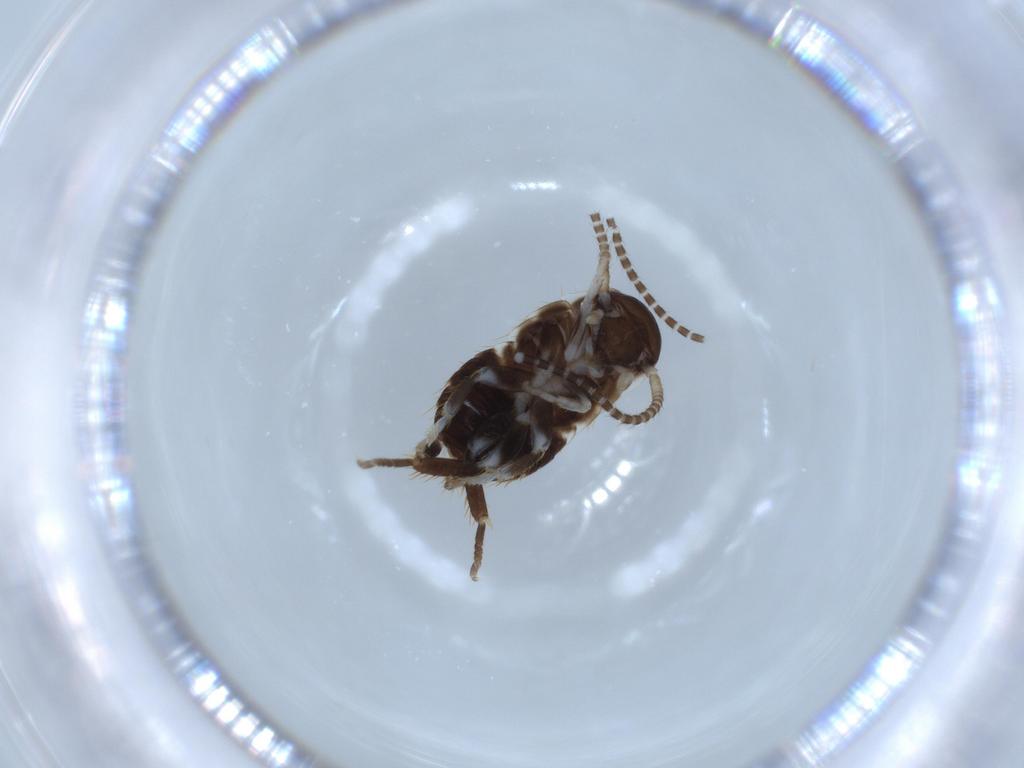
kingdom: Animalia
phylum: Arthropoda
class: Insecta
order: Blattodea
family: Ectobiidae
